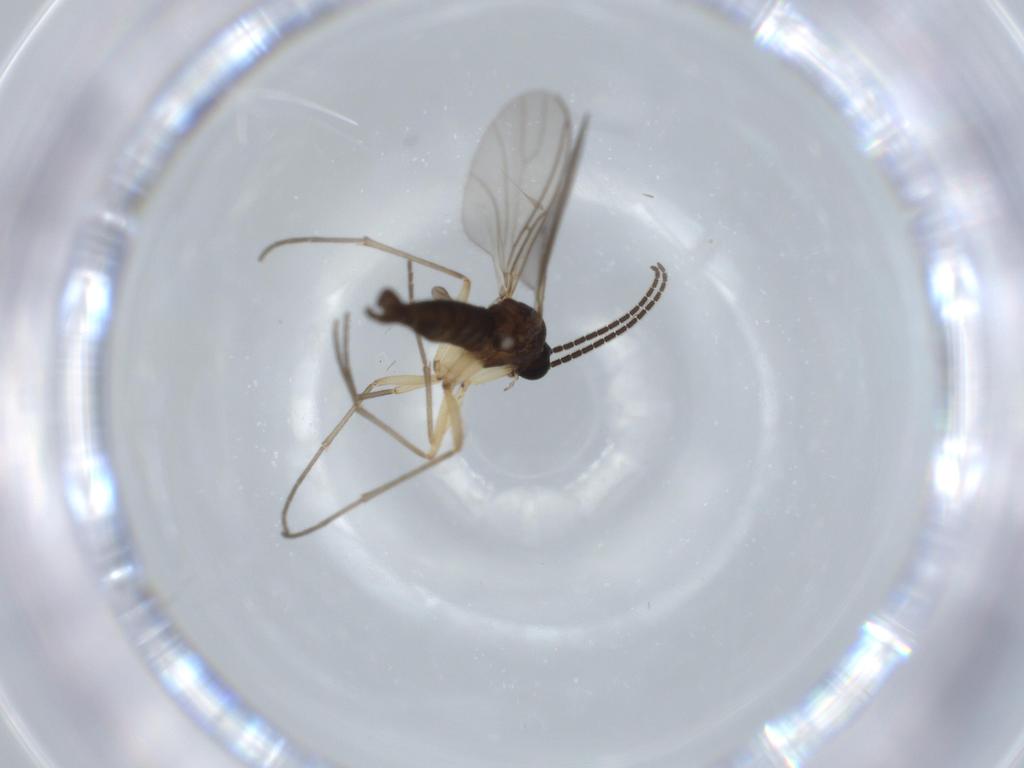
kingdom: Animalia
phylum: Arthropoda
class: Insecta
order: Diptera
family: Sciaridae
